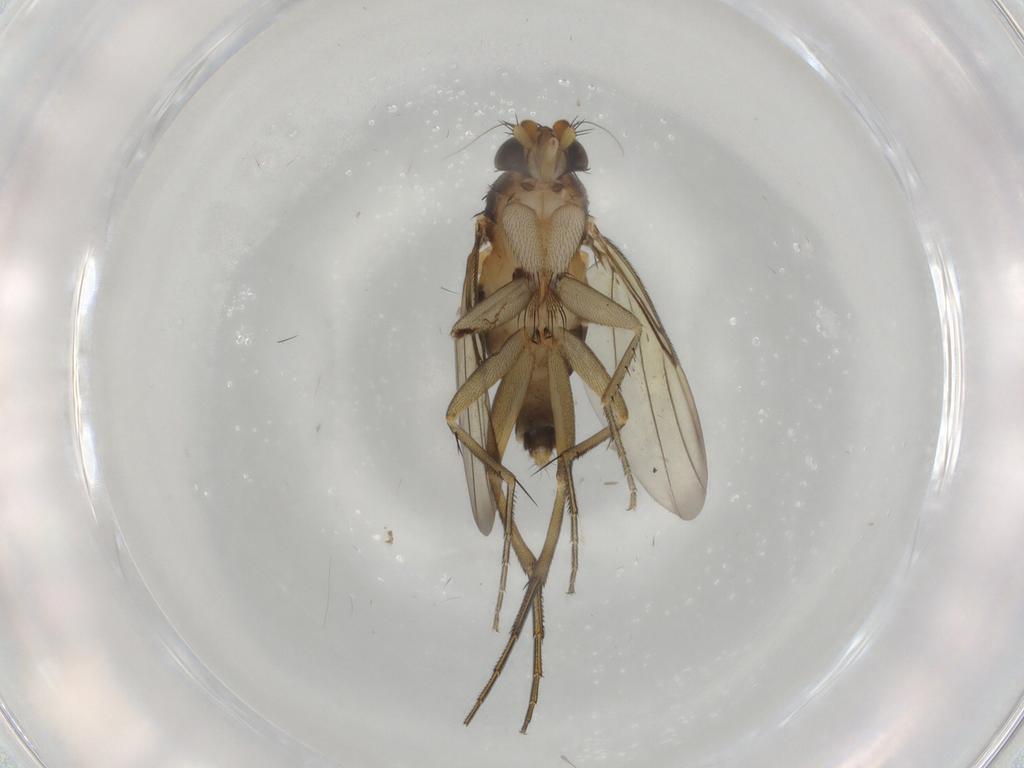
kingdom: Animalia
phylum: Arthropoda
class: Insecta
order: Diptera
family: Phoridae
